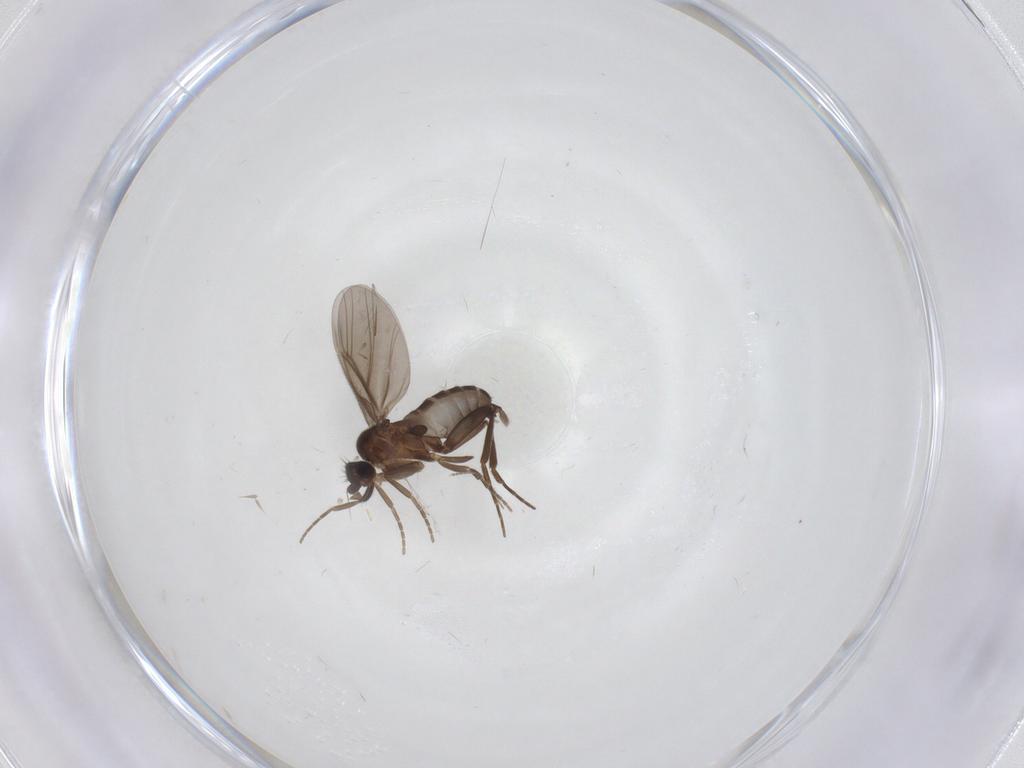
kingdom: Animalia
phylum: Arthropoda
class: Insecta
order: Diptera
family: Phoridae
